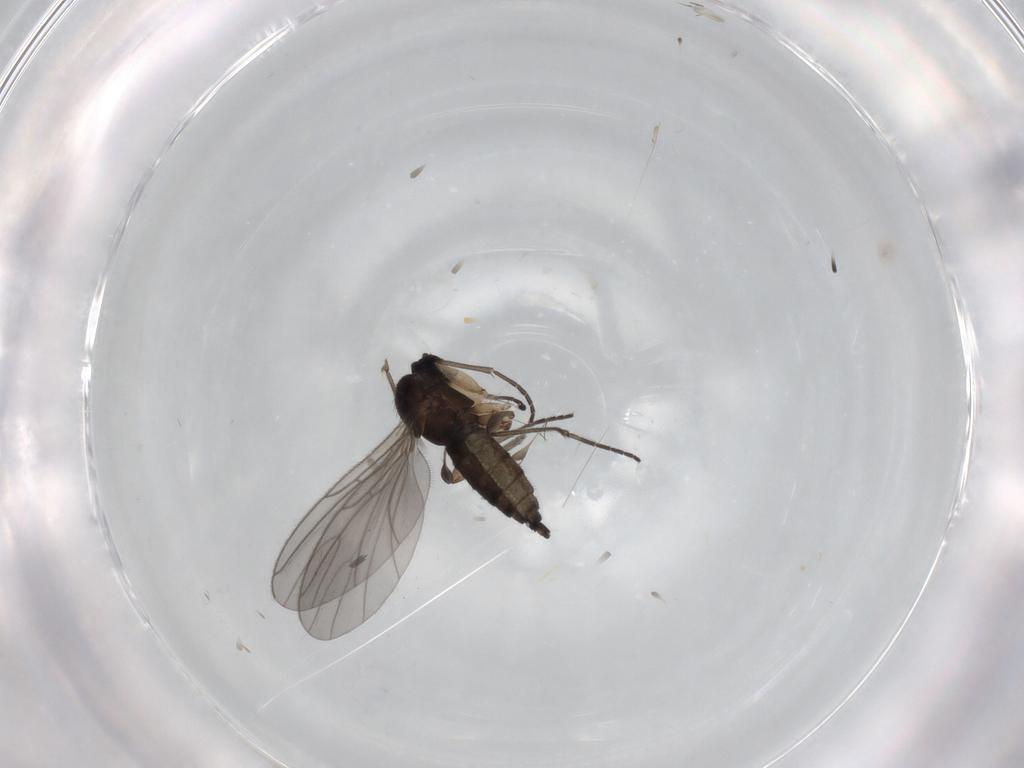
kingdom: Animalia
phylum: Arthropoda
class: Insecta
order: Diptera
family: Sciaridae
